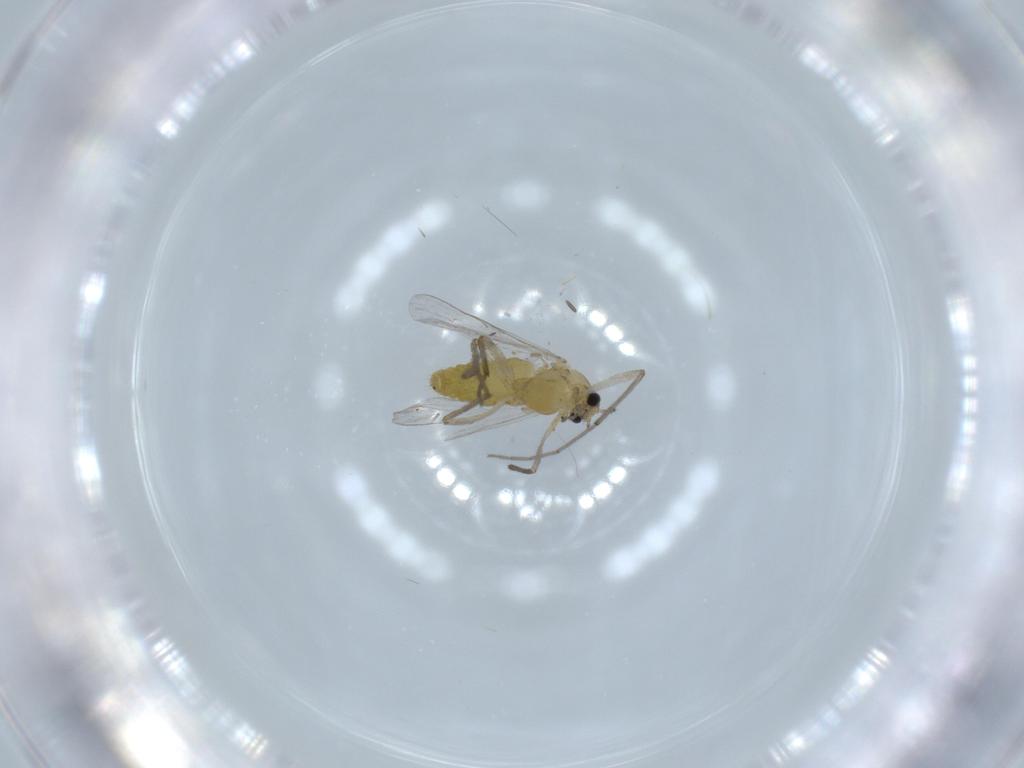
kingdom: Animalia
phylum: Arthropoda
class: Insecta
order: Diptera
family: Chironomidae
